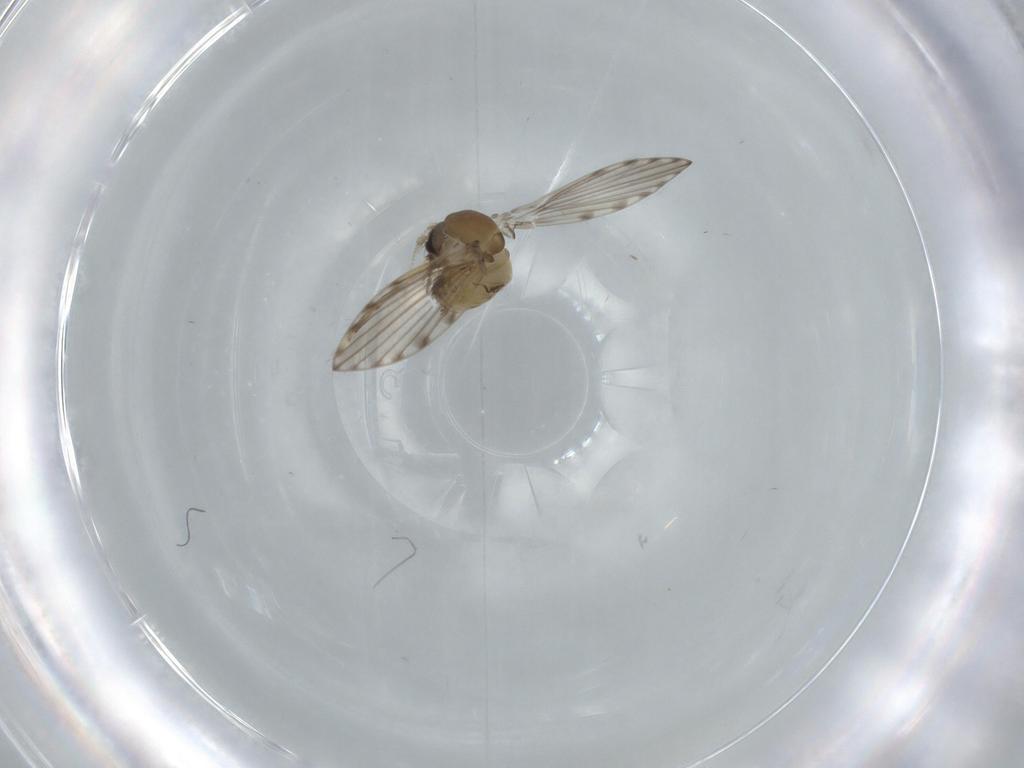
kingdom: Animalia
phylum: Arthropoda
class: Insecta
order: Diptera
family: Psychodidae
